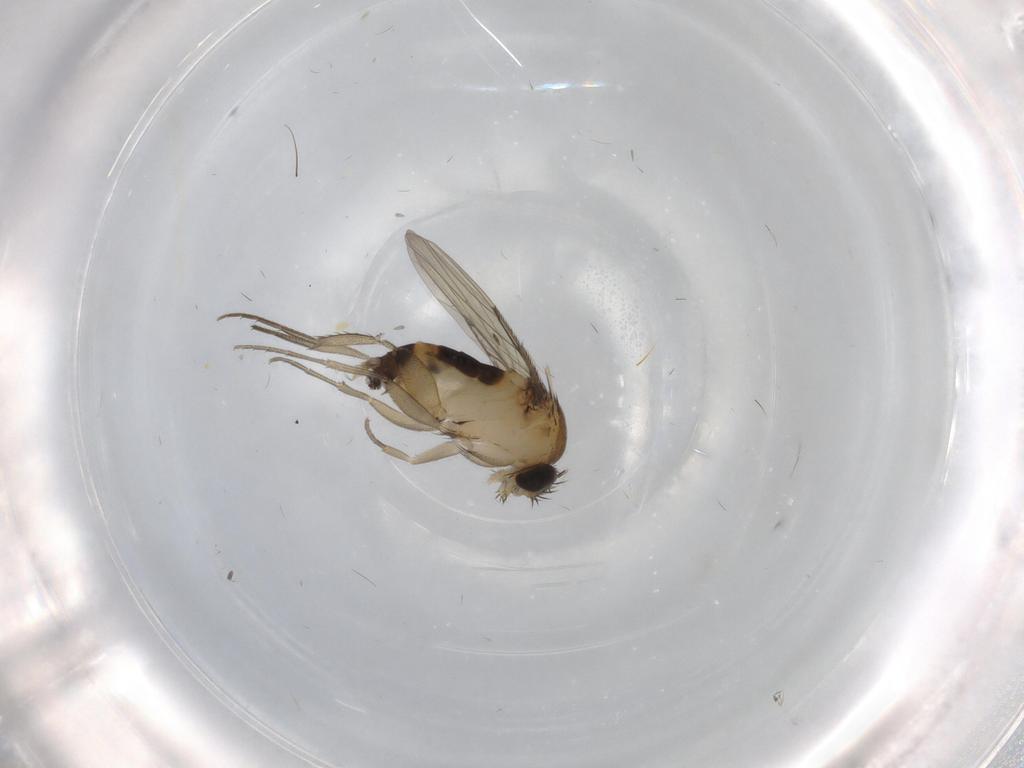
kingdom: Animalia
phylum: Arthropoda
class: Insecta
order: Diptera
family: Phoridae
